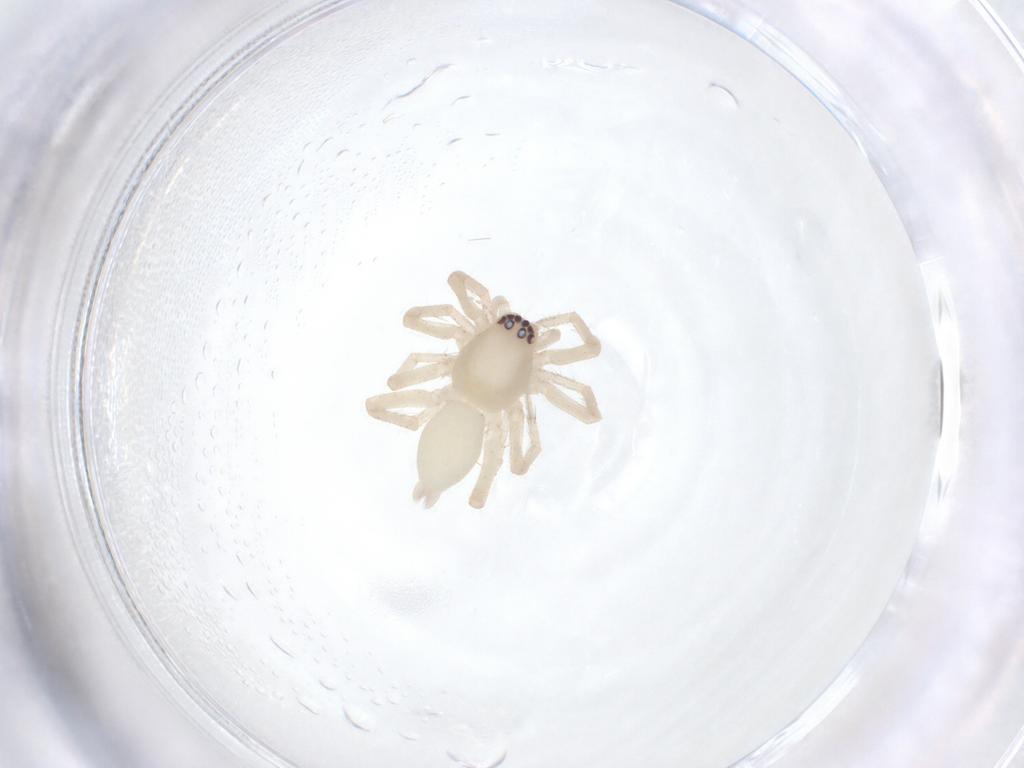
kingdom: Animalia
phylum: Arthropoda
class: Arachnida
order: Araneae
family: Clubionidae
